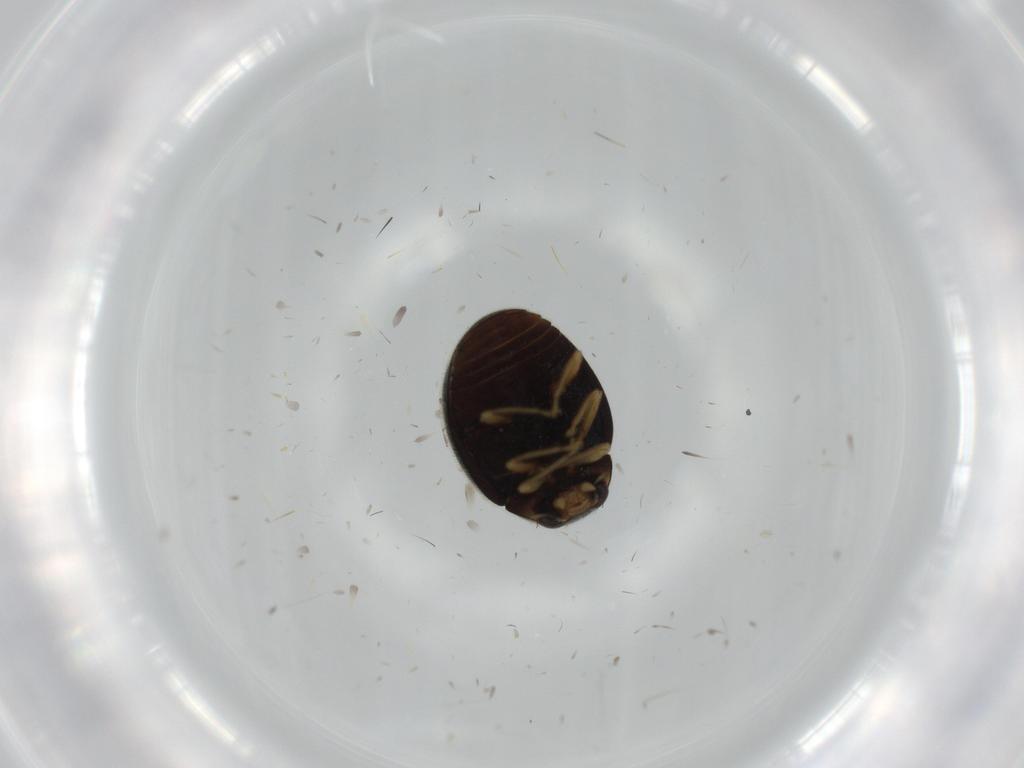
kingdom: Animalia
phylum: Arthropoda
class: Insecta
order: Coleoptera
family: Coccinellidae
